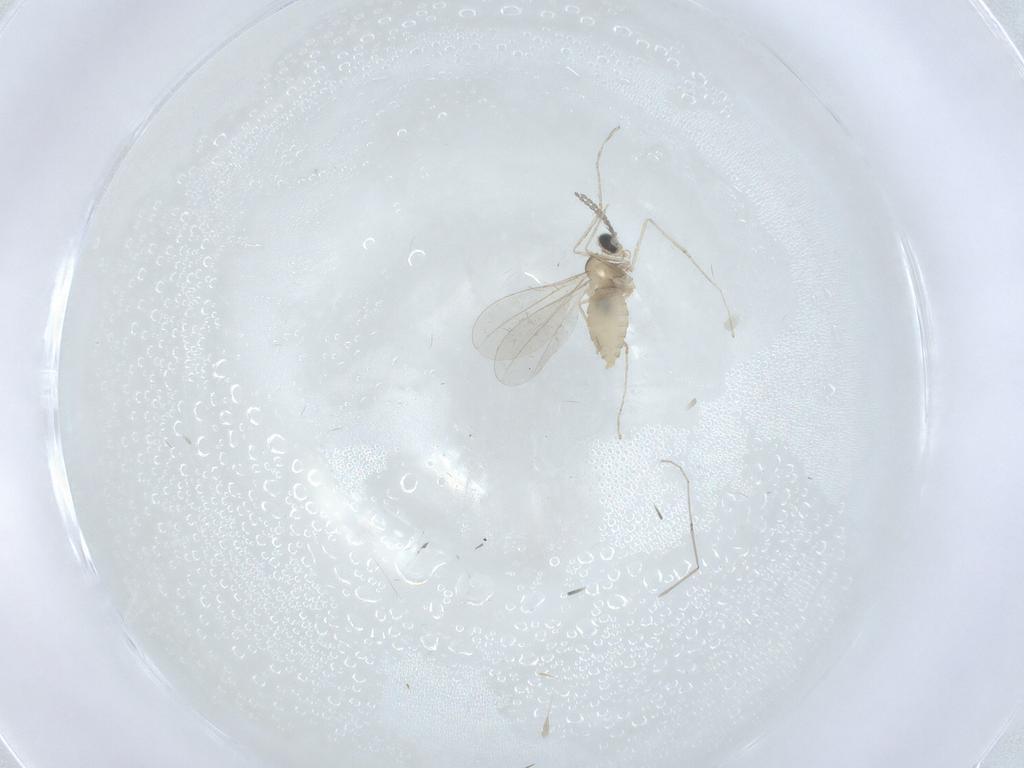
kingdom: Animalia
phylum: Arthropoda
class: Insecta
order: Diptera
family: Cecidomyiidae
